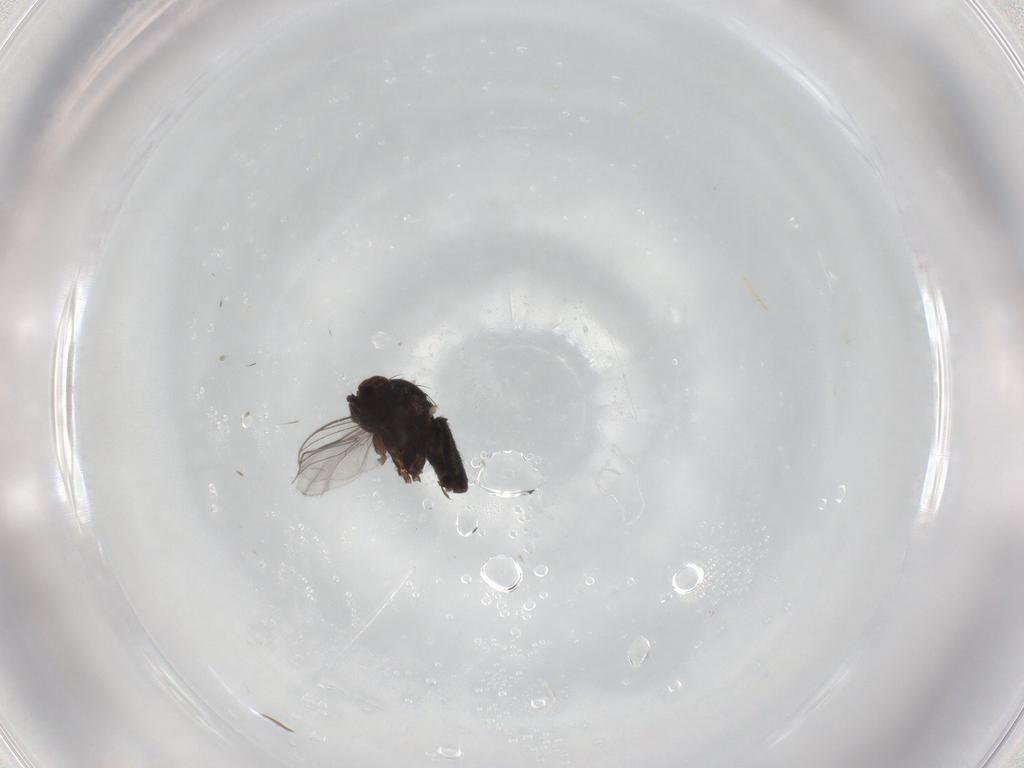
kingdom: Animalia
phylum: Arthropoda
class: Insecta
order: Diptera
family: Dolichopodidae
